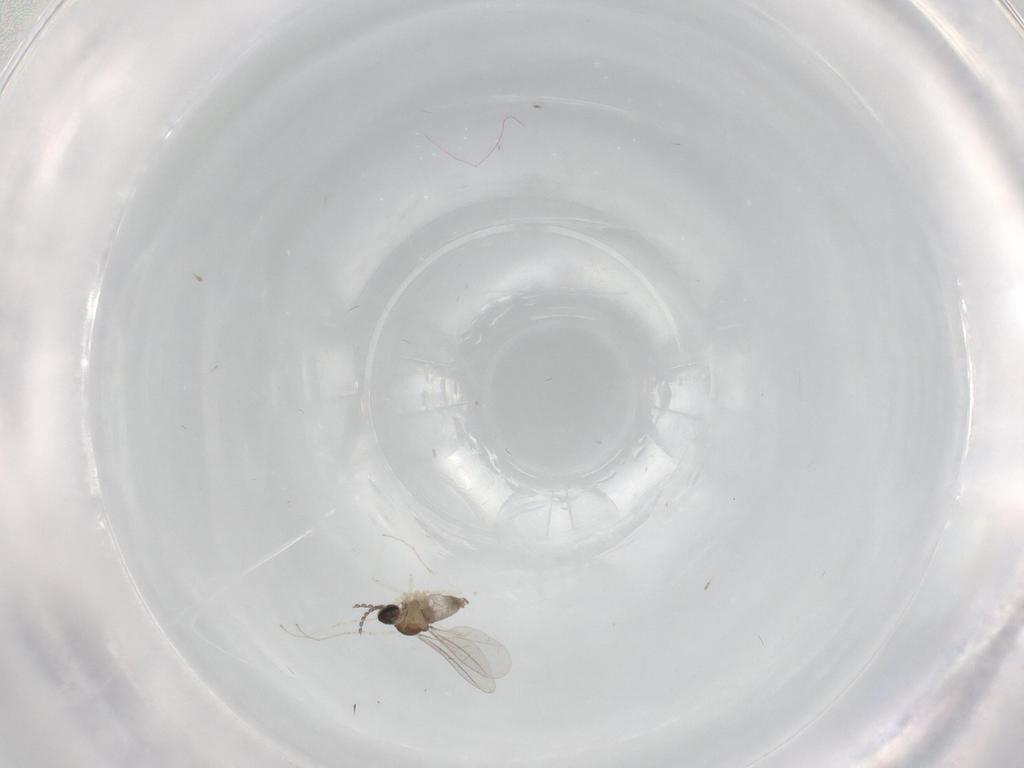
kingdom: Animalia
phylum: Arthropoda
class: Insecta
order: Diptera
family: Cecidomyiidae
